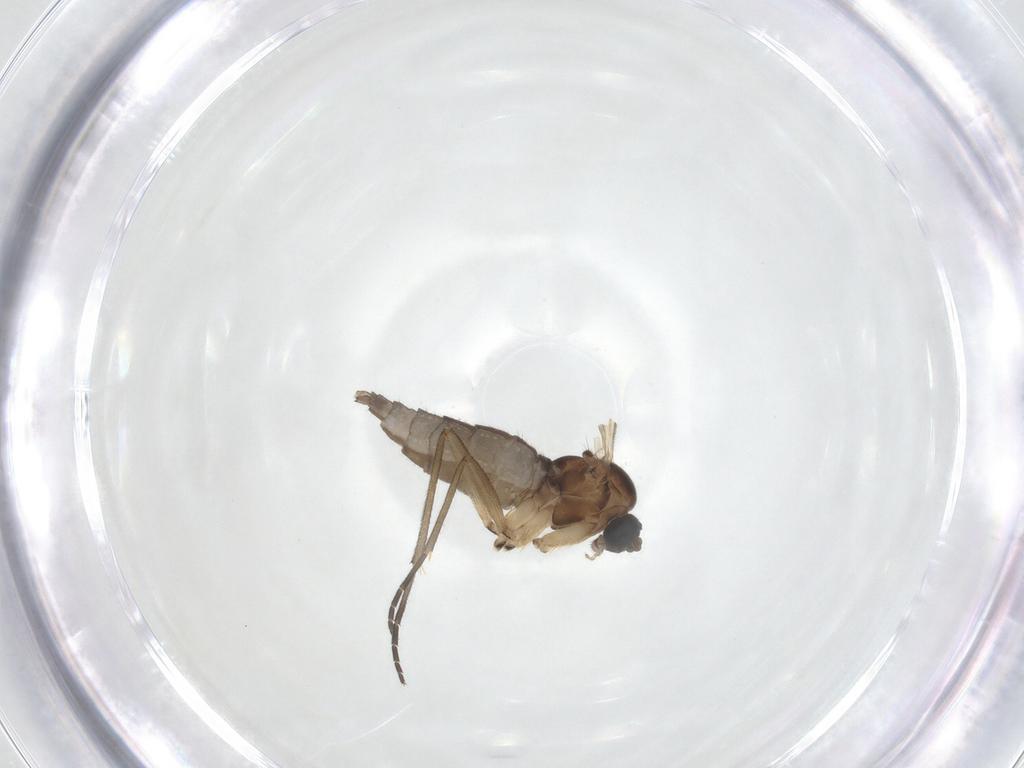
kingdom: Animalia
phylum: Arthropoda
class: Insecta
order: Diptera
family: Sciaridae
